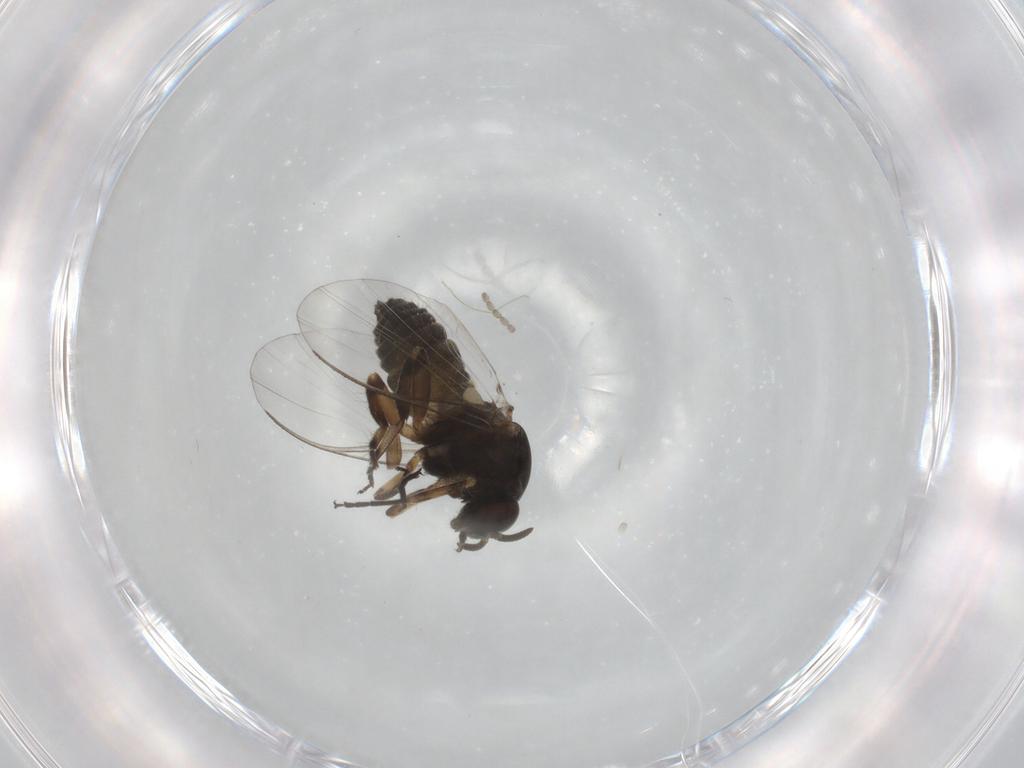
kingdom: Animalia
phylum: Arthropoda
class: Insecta
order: Diptera
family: Scatopsidae
